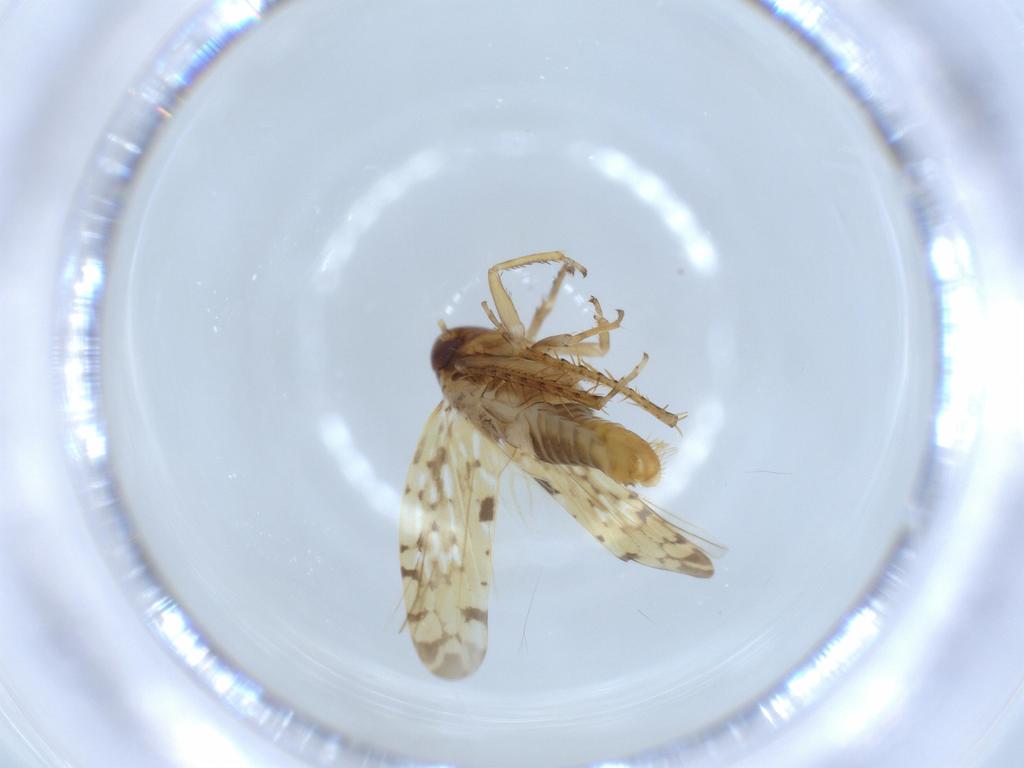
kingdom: Animalia
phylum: Arthropoda
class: Insecta
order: Hemiptera
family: Cicadellidae
